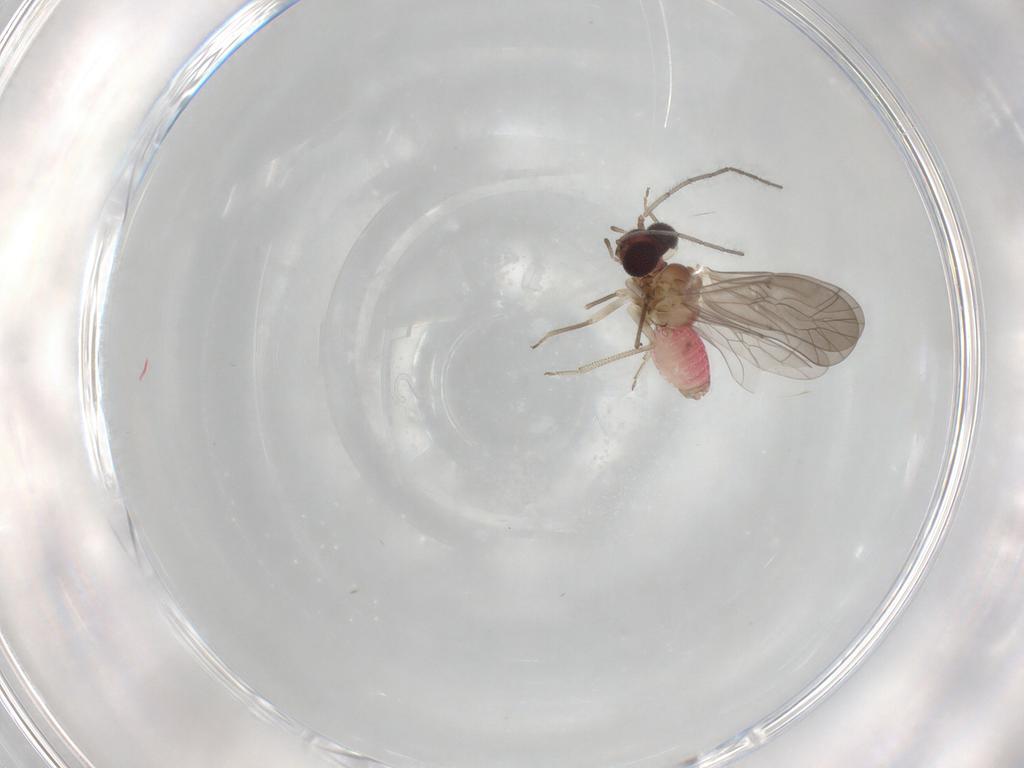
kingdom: Animalia
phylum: Arthropoda
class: Insecta
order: Psocodea
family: Lachesillidae
